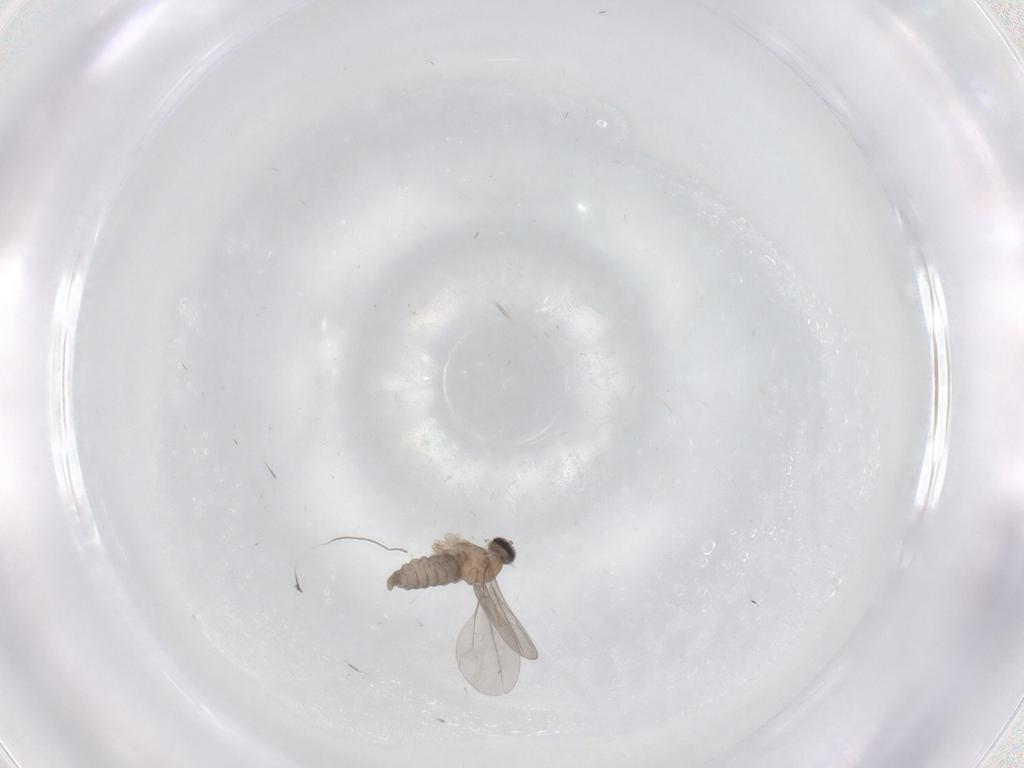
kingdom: Animalia
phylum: Arthropoda
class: Insecta
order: Diptera
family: Cecidomyiidae
